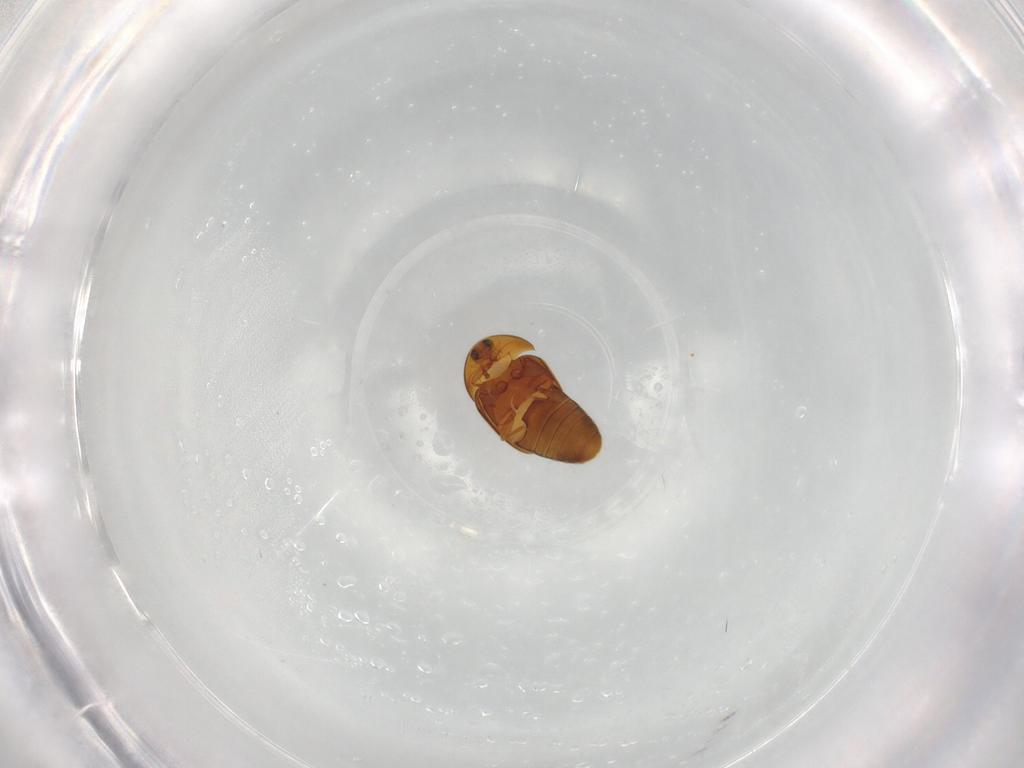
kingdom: Animalia
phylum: Arthropoda
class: Insecta
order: Coleoptera
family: Corylophidae
